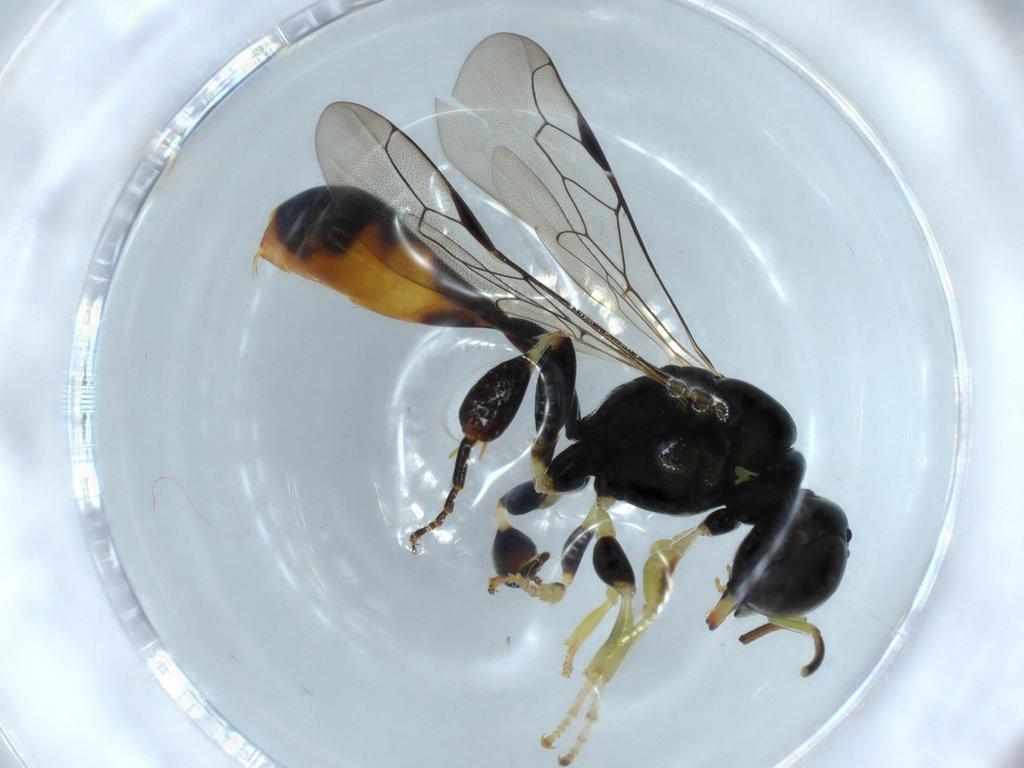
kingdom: Animalia
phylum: Arthropoda
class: Insecta
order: Hymenoptera
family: Crabronidae
